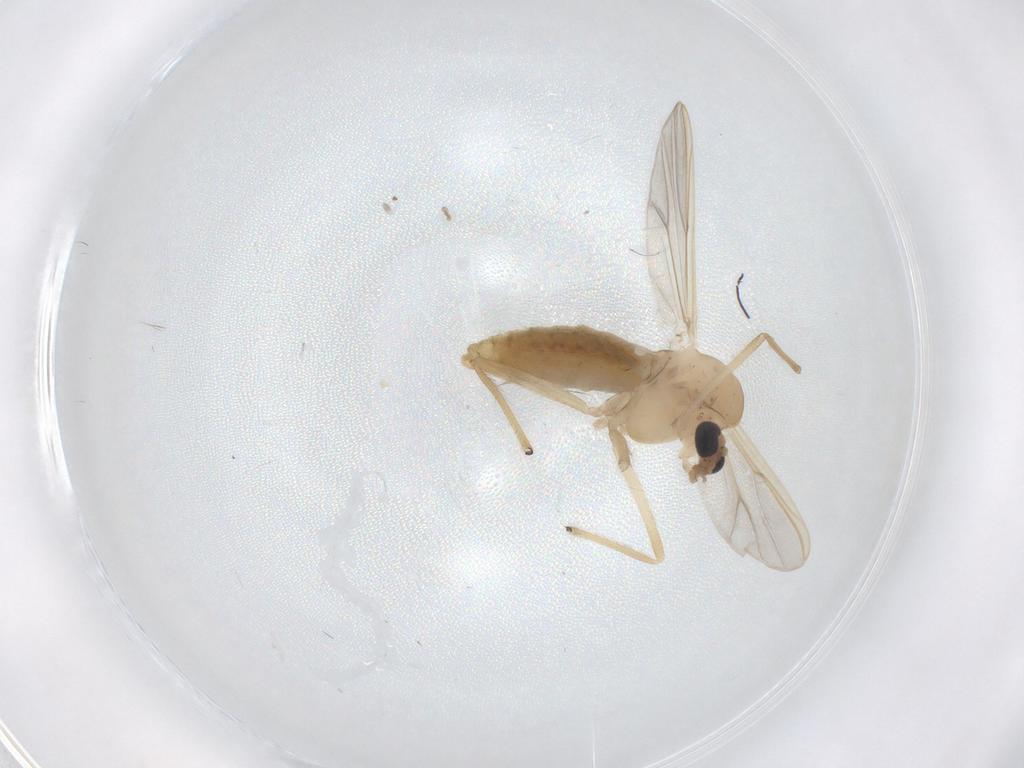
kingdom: Animalia
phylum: Arthropoda
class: Insecta
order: Diptera
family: Chironomidae
